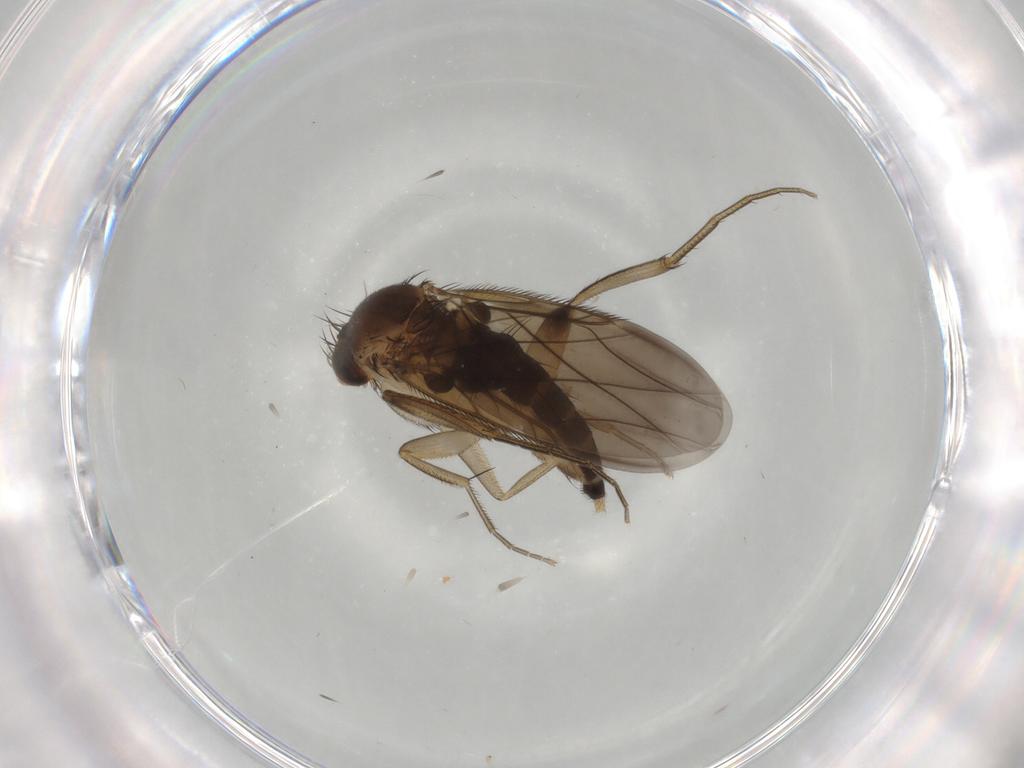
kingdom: Animalia
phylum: Arthropoda
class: Insecta
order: Diptera
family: Phoridae
